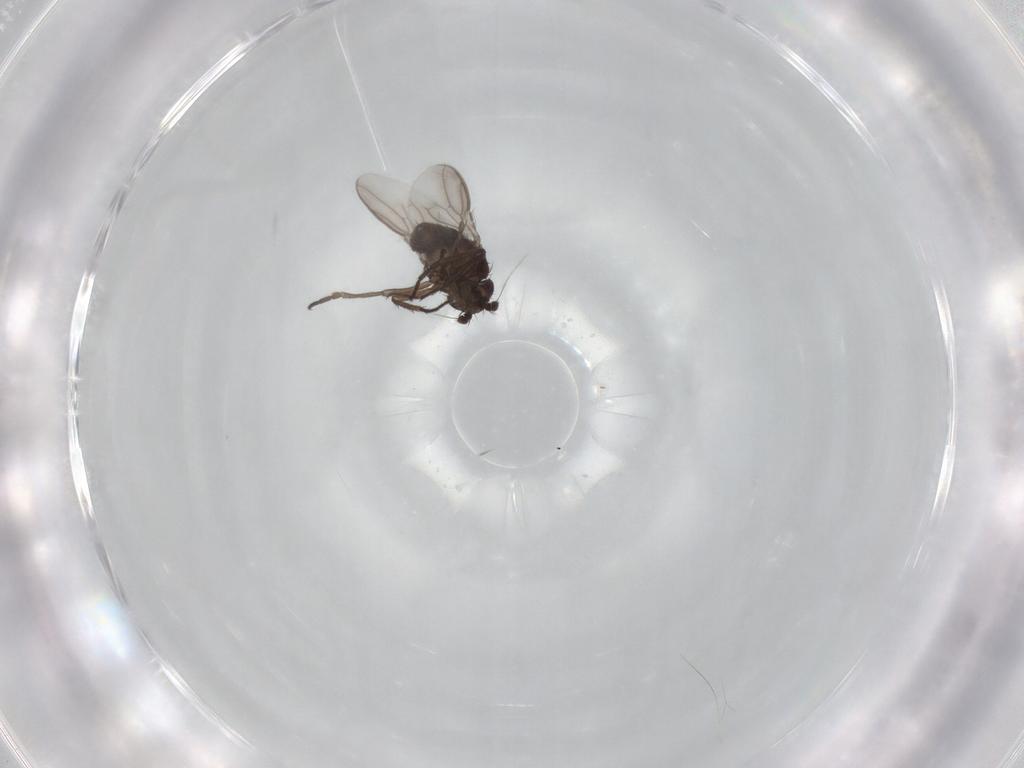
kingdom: Animalia
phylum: Arthropoda
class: Insecta
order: Diptera
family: Sphaeroceridae
